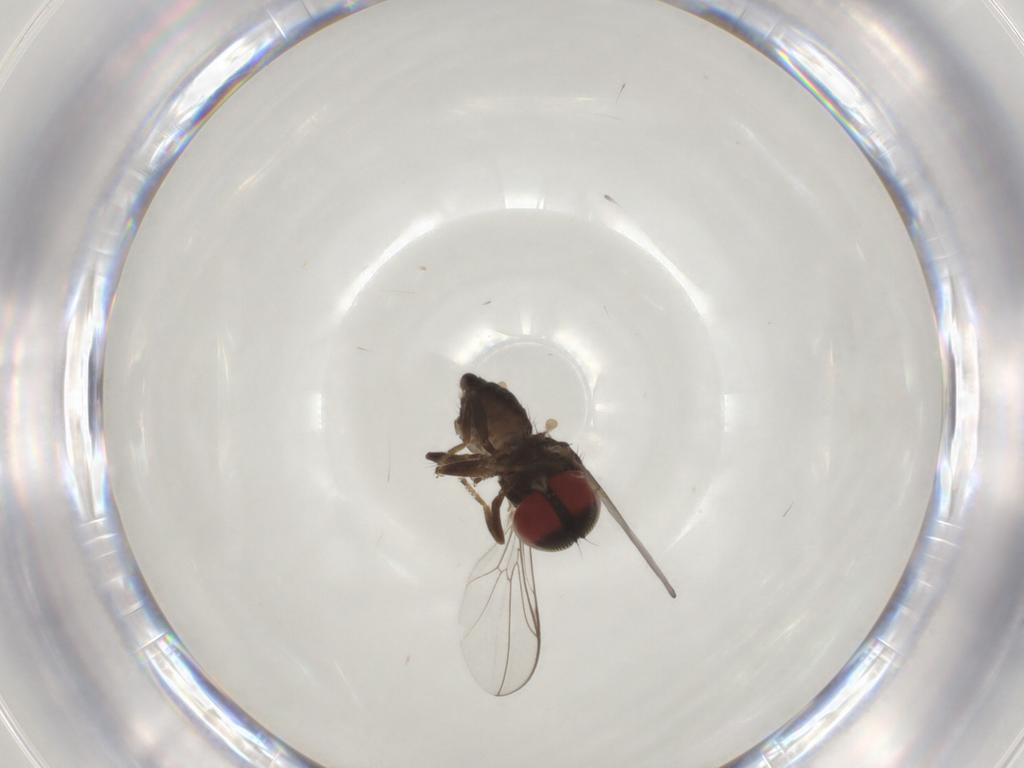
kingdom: Animalia
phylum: Arthropoda
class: Insecta
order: Diptera
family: Pipunculidae
